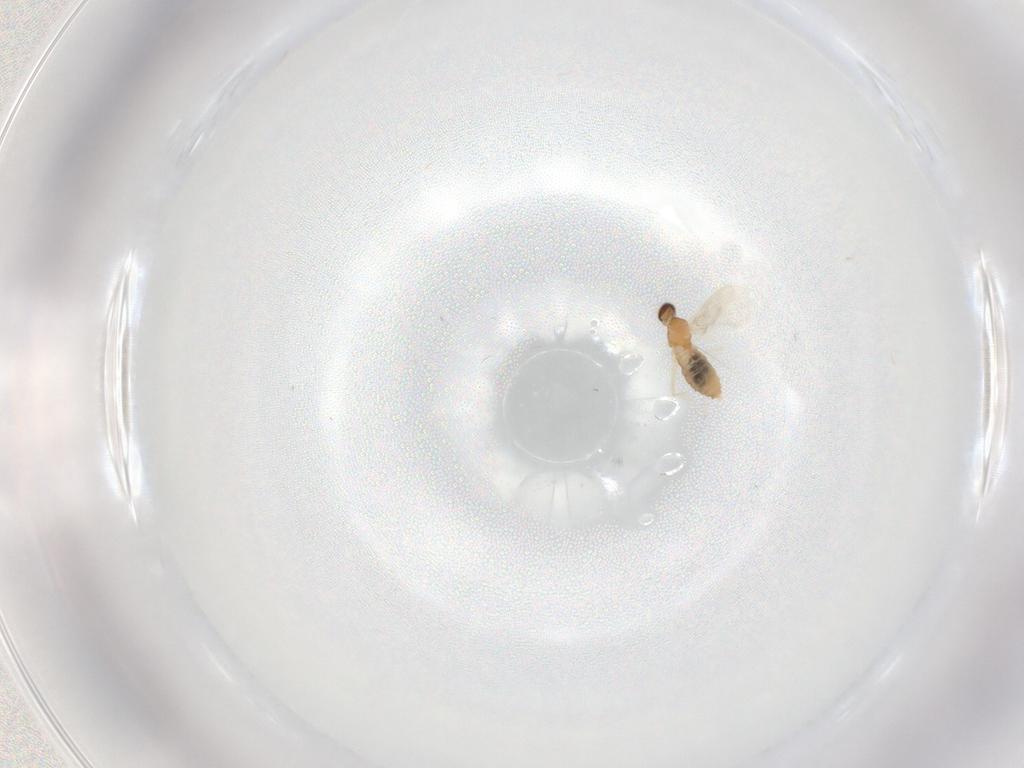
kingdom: Animalia
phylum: Arthropoda
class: Insecta
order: Diptera
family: Cecidomyiidae
